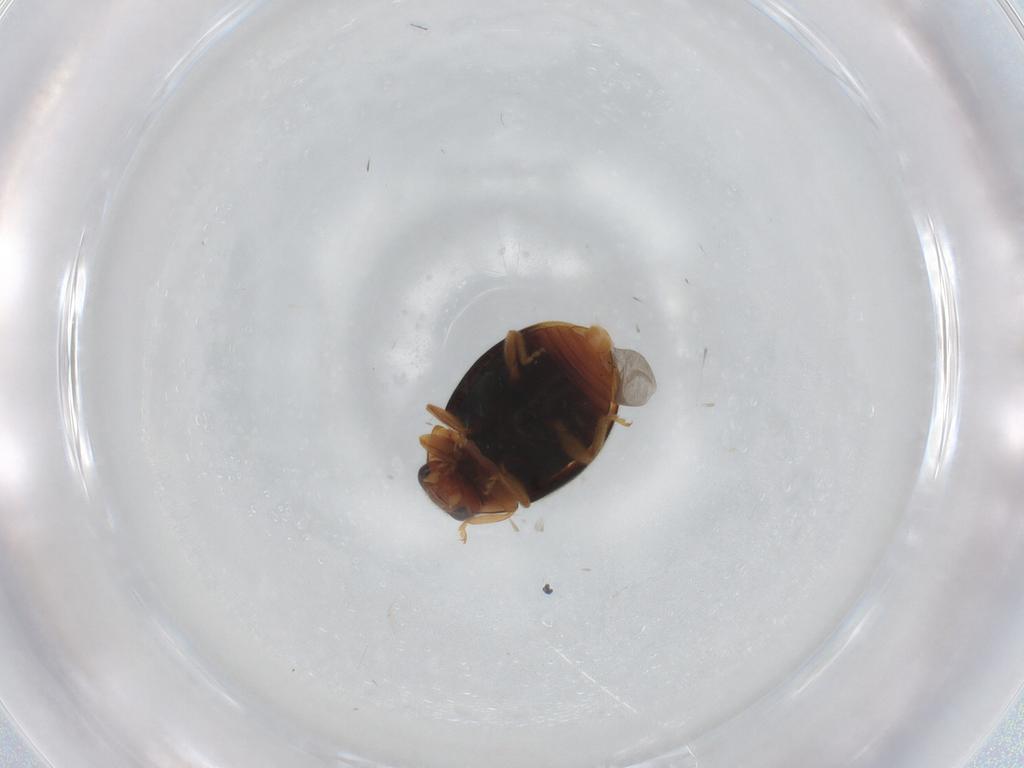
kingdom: Animalia
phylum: Arthropoda
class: Insecta
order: Coleoptera
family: Coccinellidae
